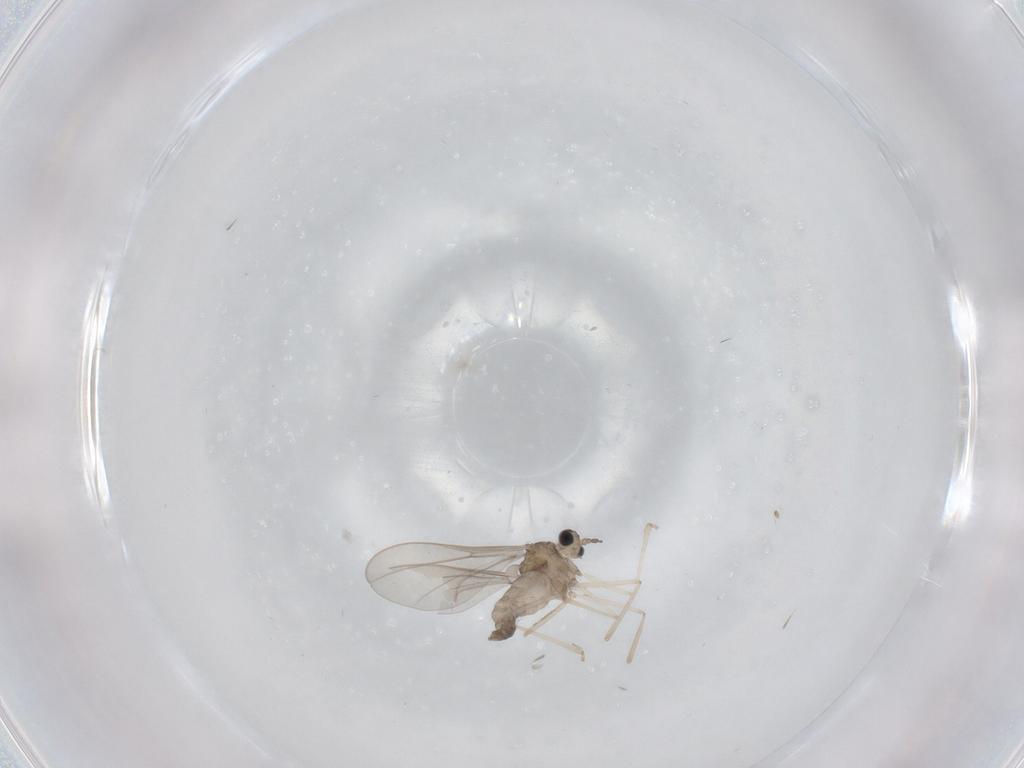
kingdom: Animalia
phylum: Arthropoda
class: Insecta
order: Diptera
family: Cecidomyiidae
